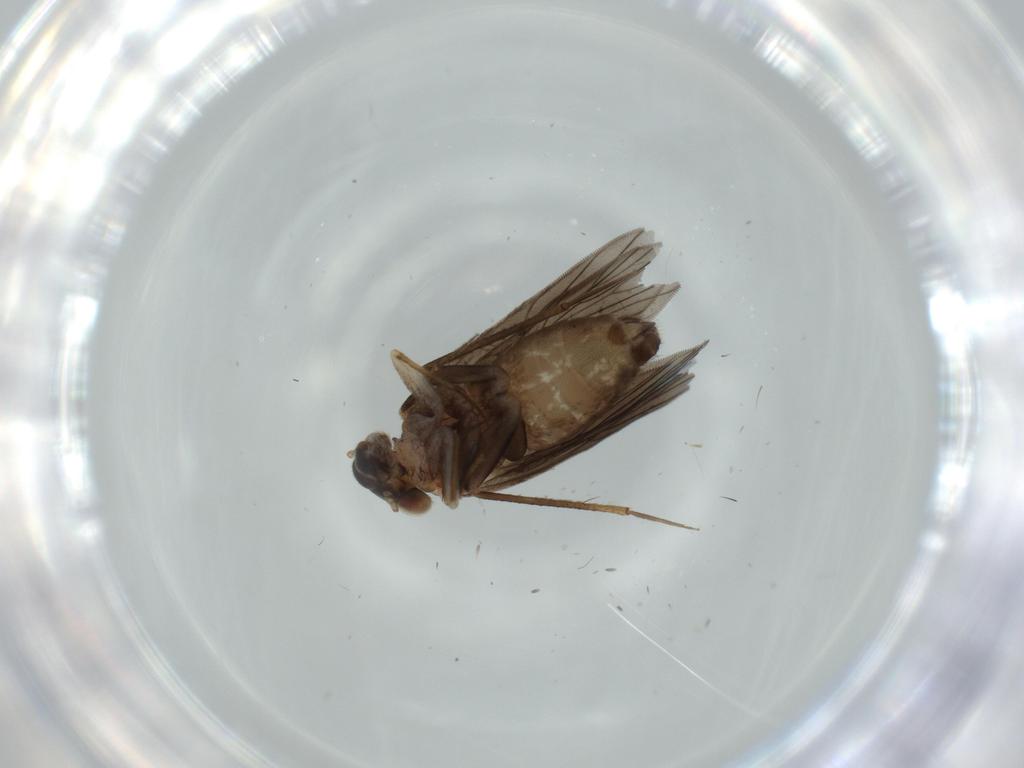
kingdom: Animalia
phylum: Arthropoda
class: Insecta
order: Psocodea
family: Lepidopsocidae
